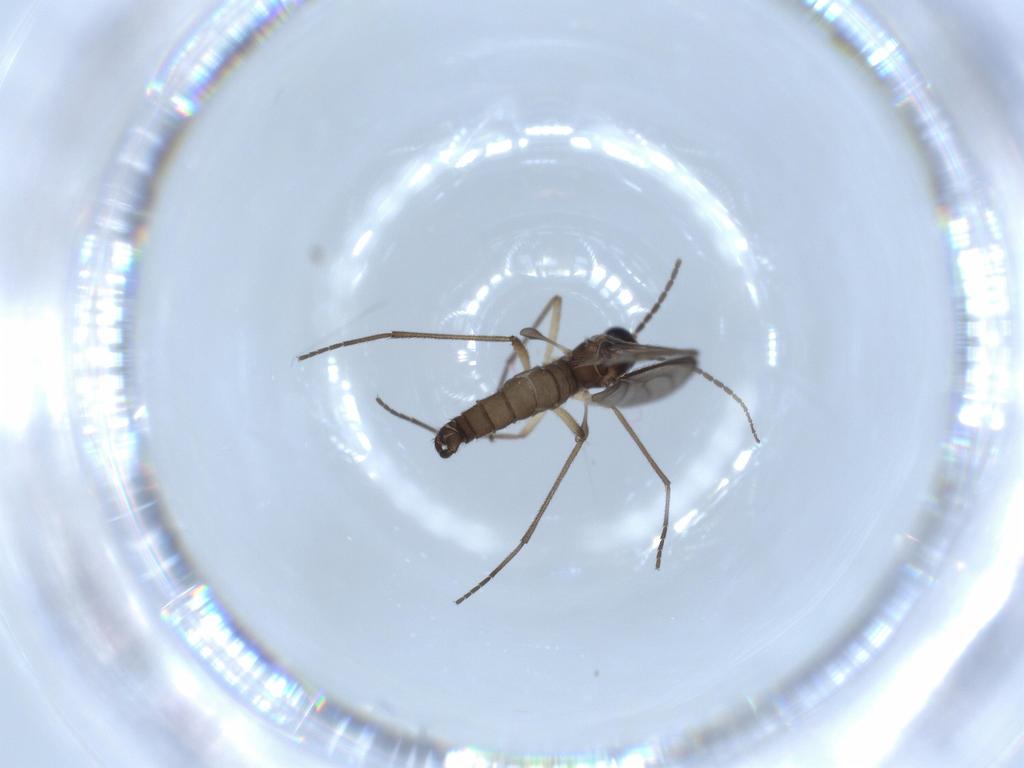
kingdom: Animalia
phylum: Arthropoda
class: Insecta
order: Diptera
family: Sciaridae
